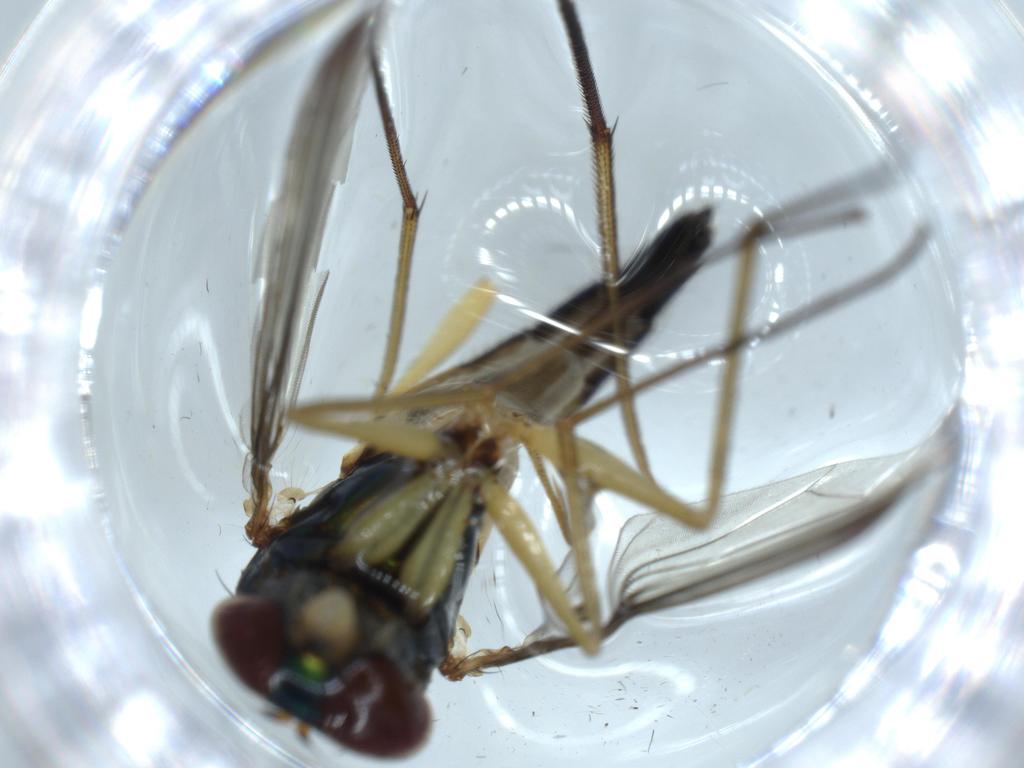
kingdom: Animalia
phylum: Arthropoda
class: Insecta
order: Diptera
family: Dolichopodidae
